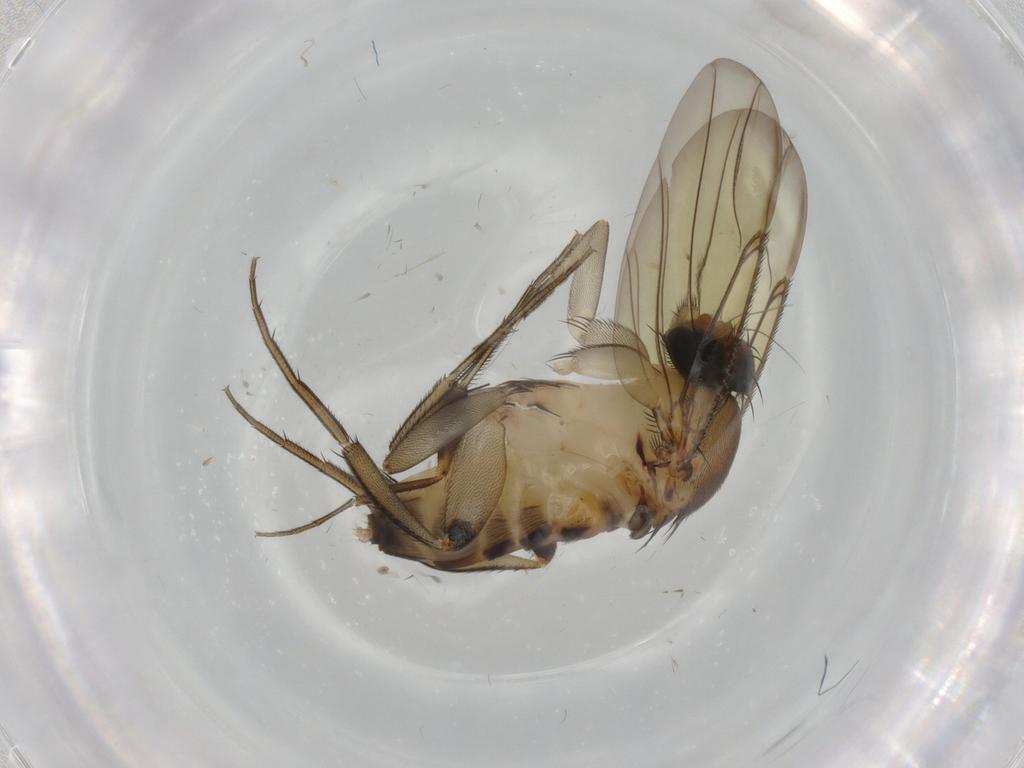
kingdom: Animalia
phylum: Arthropoda
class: Insecta
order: Diptera
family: Phoridae
